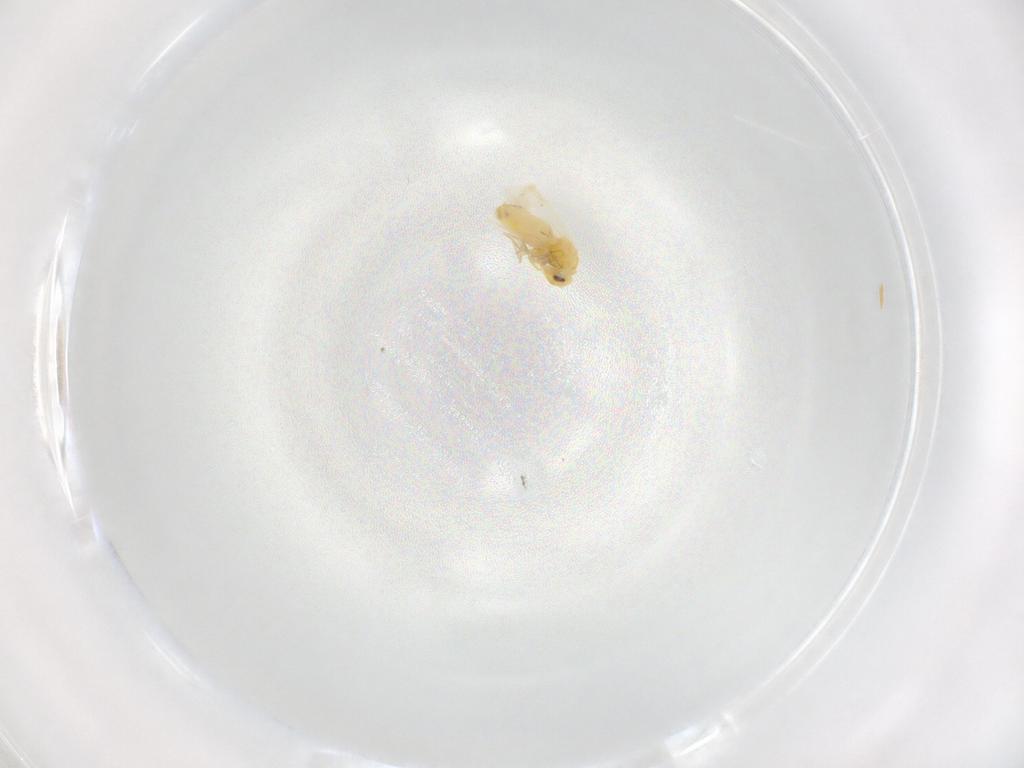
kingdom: Animalia
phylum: Arthropoda
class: Insecta
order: Hemiptera
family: Aleyrodidae
